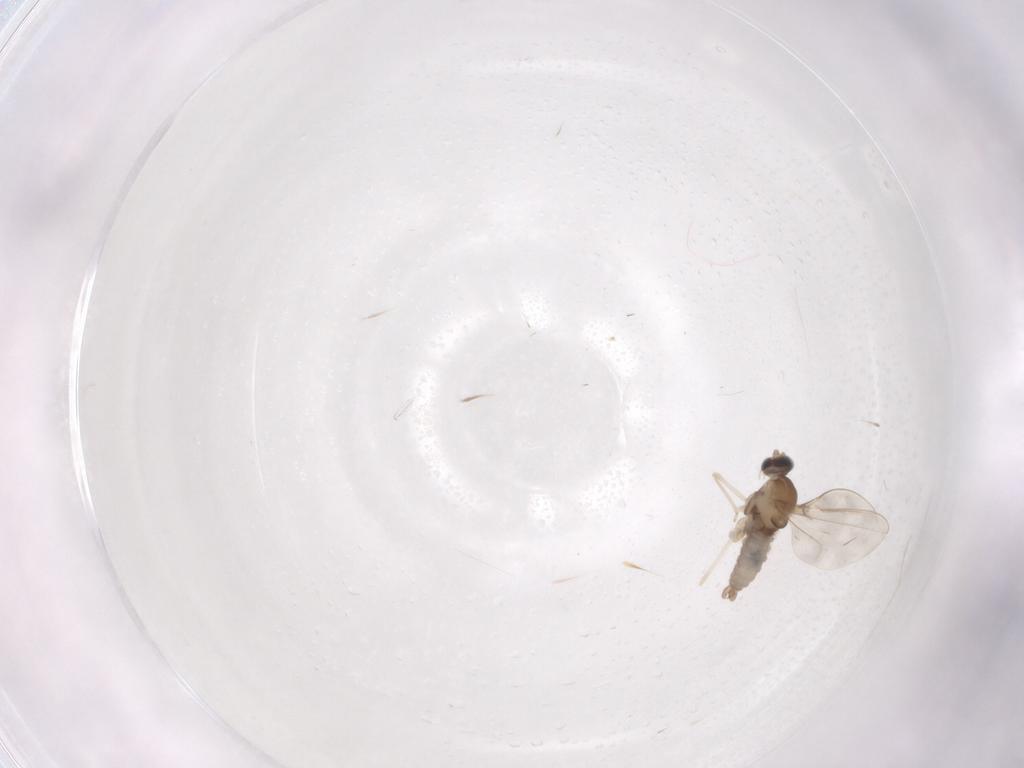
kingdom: Animalia
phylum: Arthropoda
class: Insecta
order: Diptera
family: Cecidomyiidae
